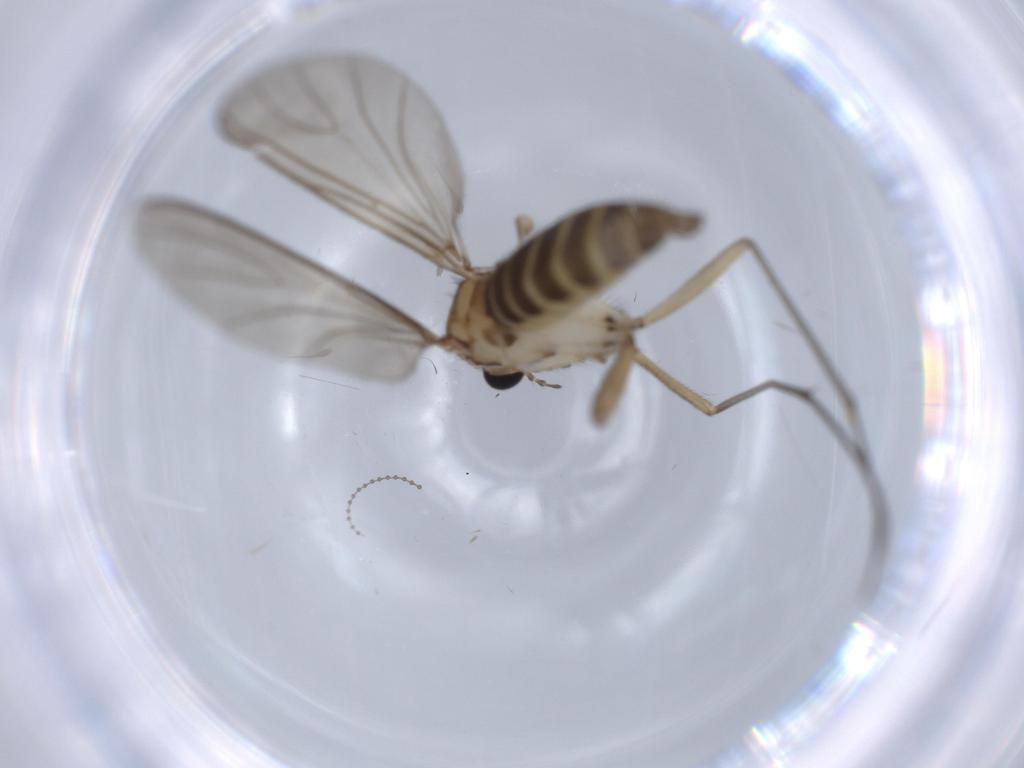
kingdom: Animalia
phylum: Arthropoda
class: Insecta
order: Diptera
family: Sciaridae
